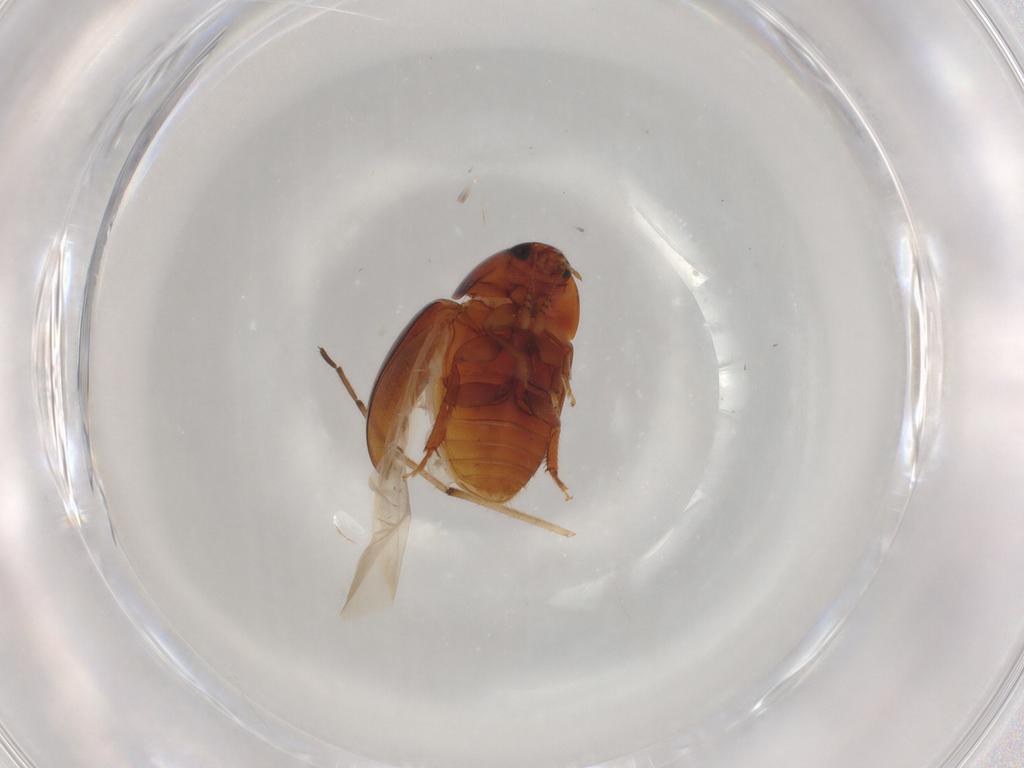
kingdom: Animalia
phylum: Arthropoda
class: Insecta
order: Coleoptera
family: Phalacridae
